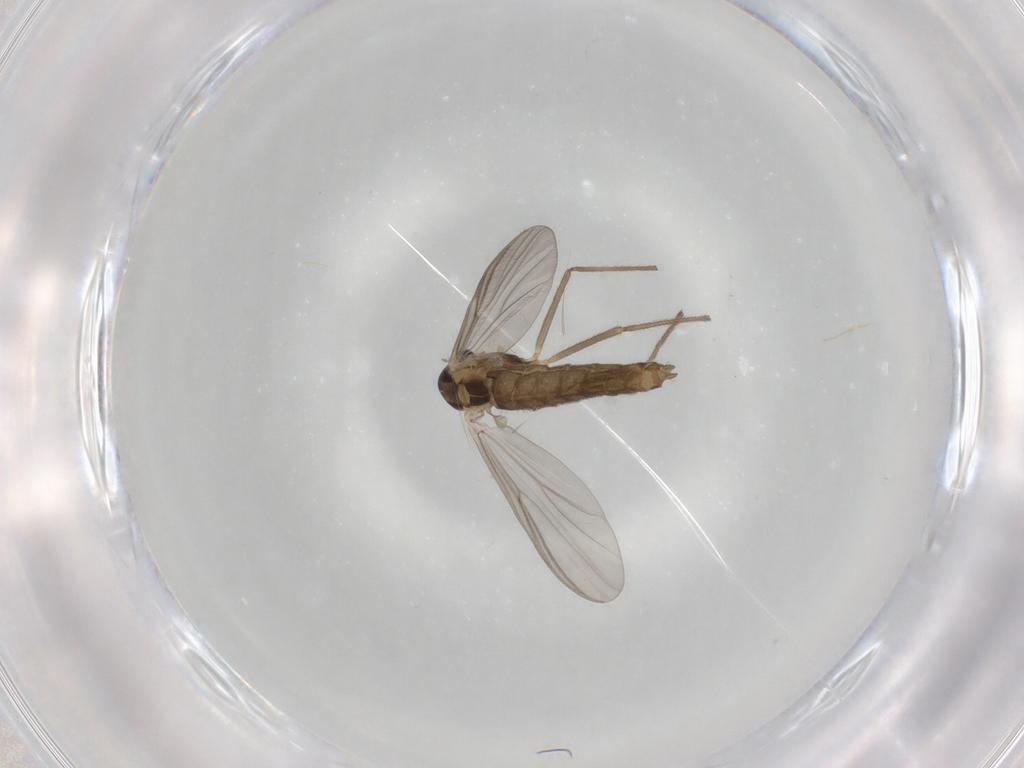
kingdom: Animalia
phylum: Arthropoda
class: Insecta
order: Diptera
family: Chironomidae
